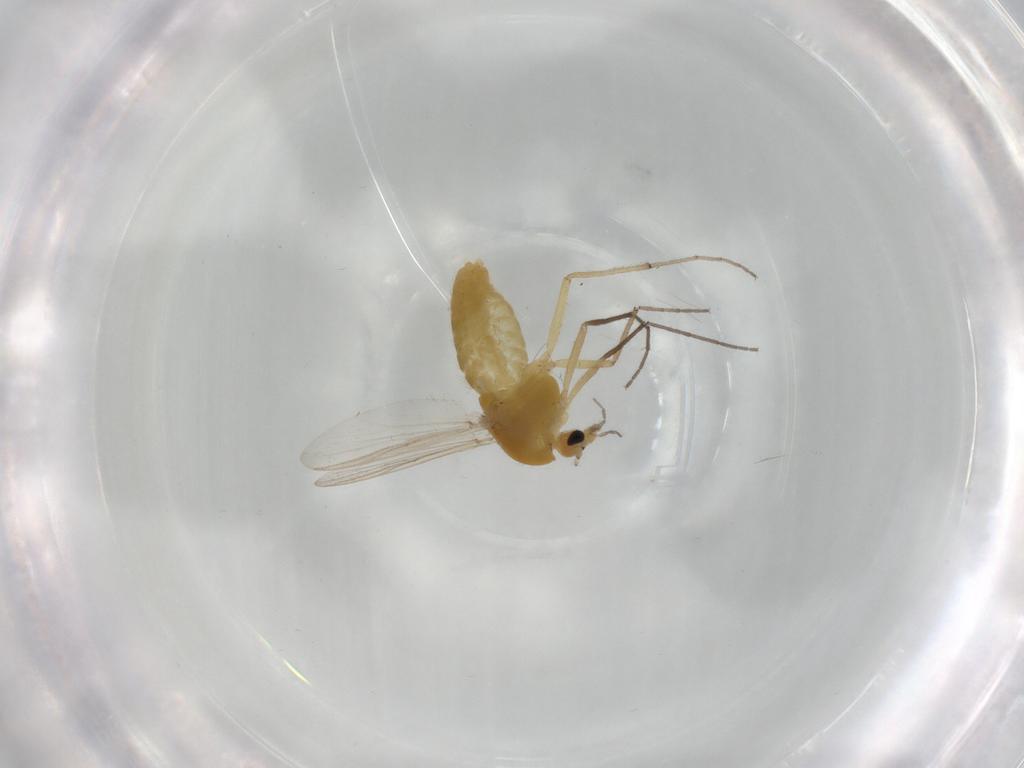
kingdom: Animalia
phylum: Arthropoda
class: Insecta
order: Diptera
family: Chironomidae
